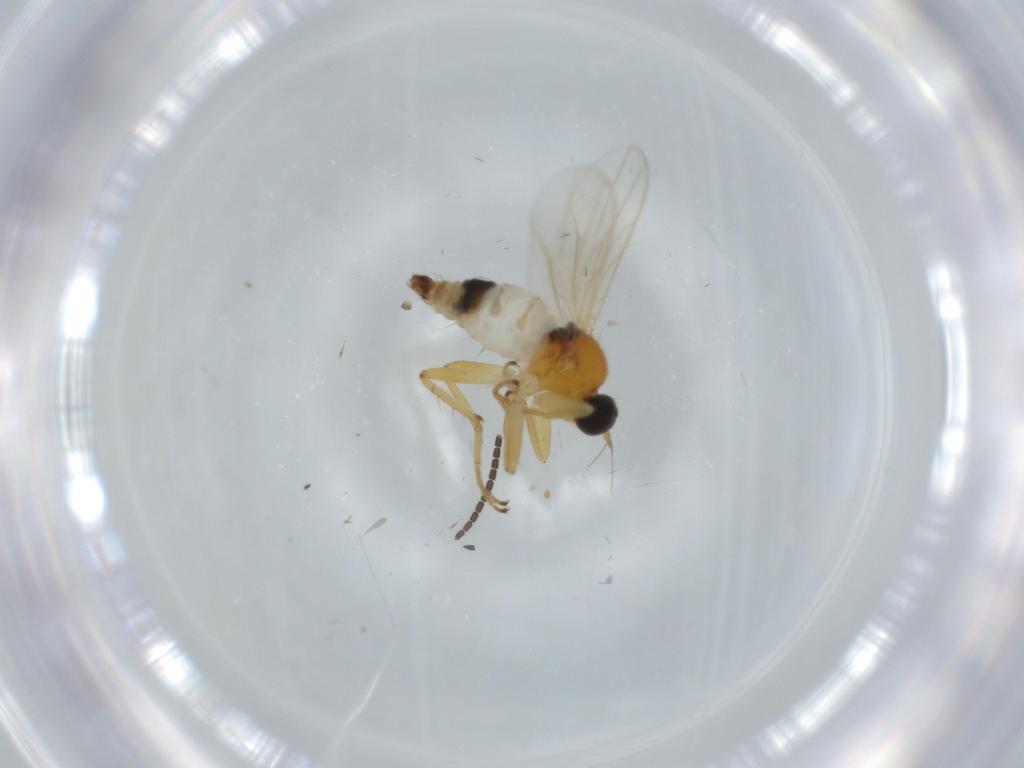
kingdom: Animalia
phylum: Arthropoda
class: Insecta
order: Diptera
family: Hybotidae
